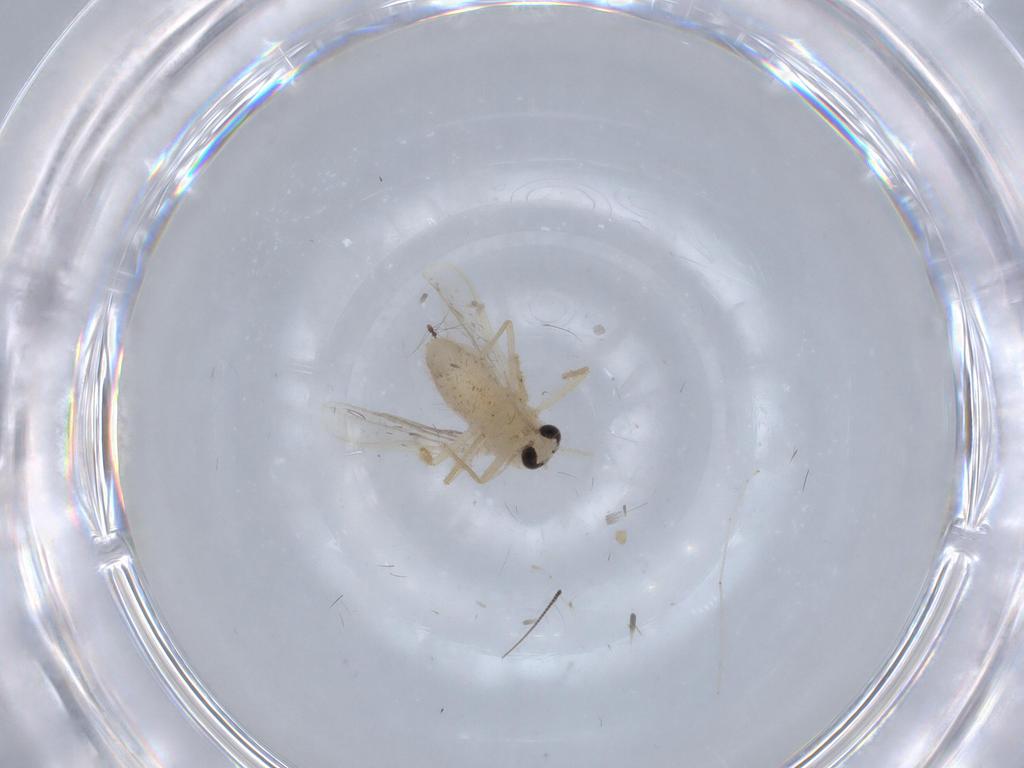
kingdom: Animalia
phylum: Arthropoda
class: Insecta
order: Diptera
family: Chironomidae
